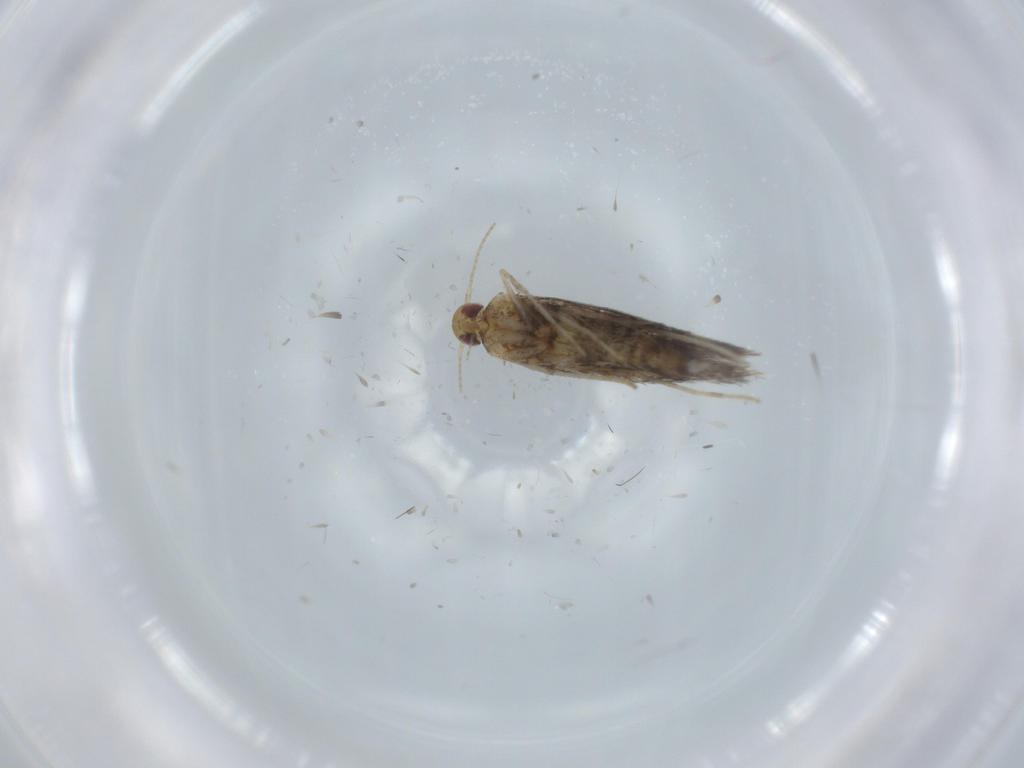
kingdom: Animalia
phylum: Arthropoda
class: Insecta
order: Lepidoptera
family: Gracillariidae
